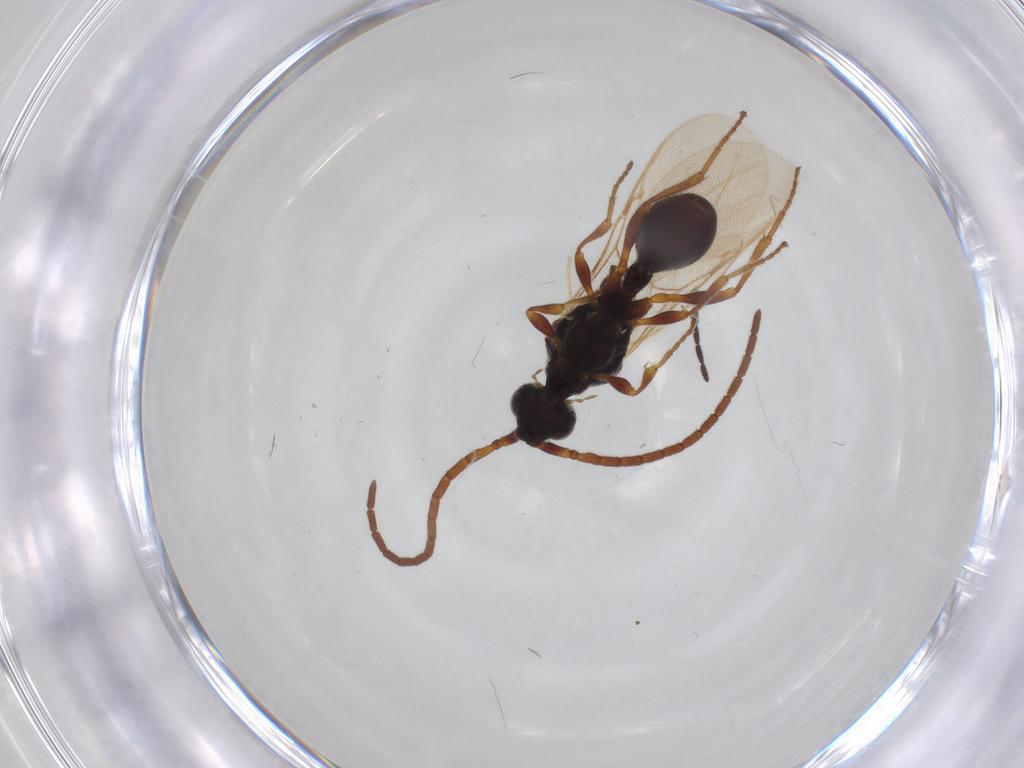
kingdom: Animalia
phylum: Arthropoda
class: Insecta
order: Hymenoptera
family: Diapriidae
